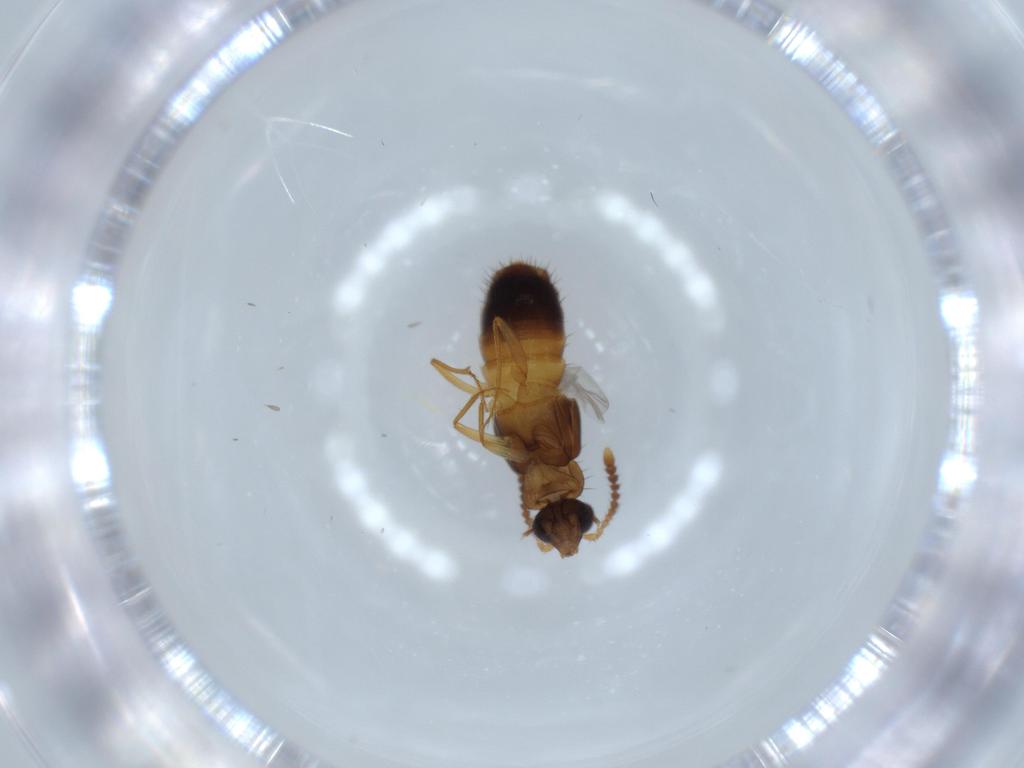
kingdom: Animalia
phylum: Arthropoda
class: Insecta
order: Coleoptera
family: Staphylinidae
